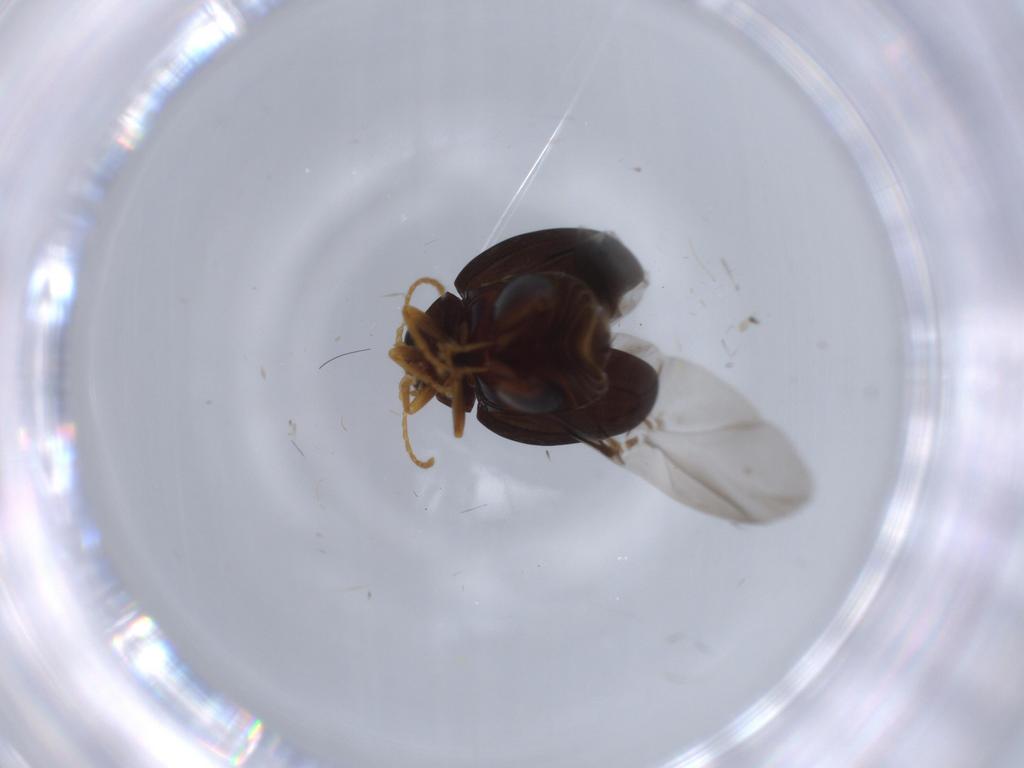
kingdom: Animalia
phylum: Arthropoda
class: Insecta
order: Coleoptera
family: Chrysomelidae
